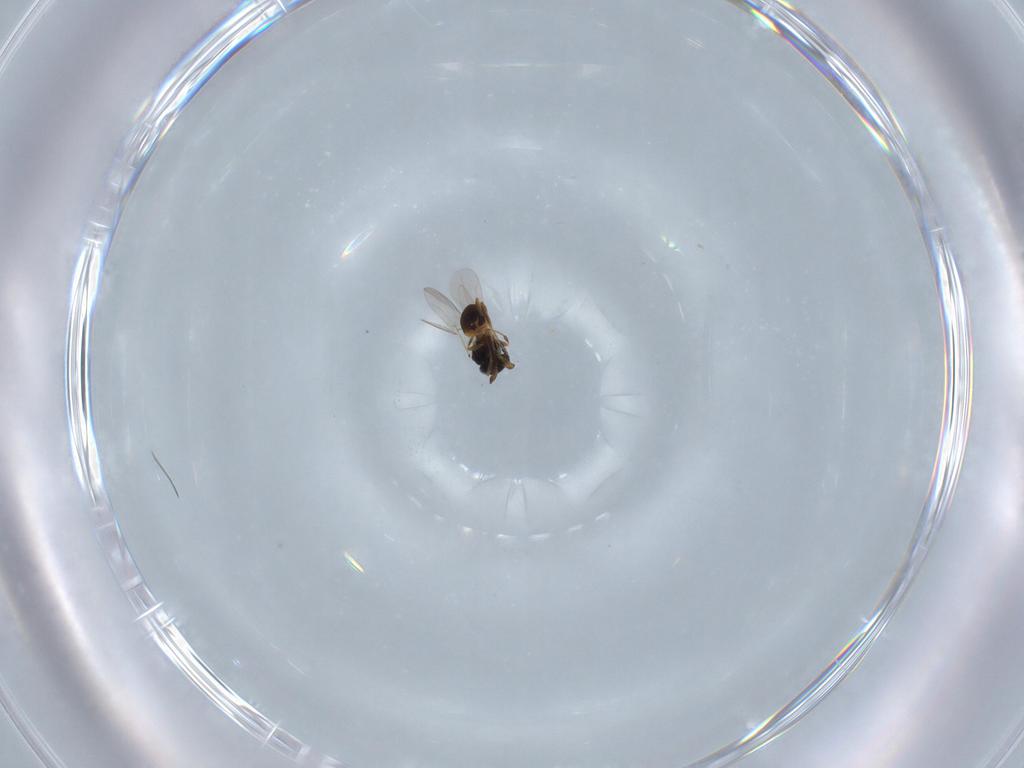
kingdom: Animalia
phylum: Arthropoda
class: Insecta
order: Hymenoptera
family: Platygastridae
